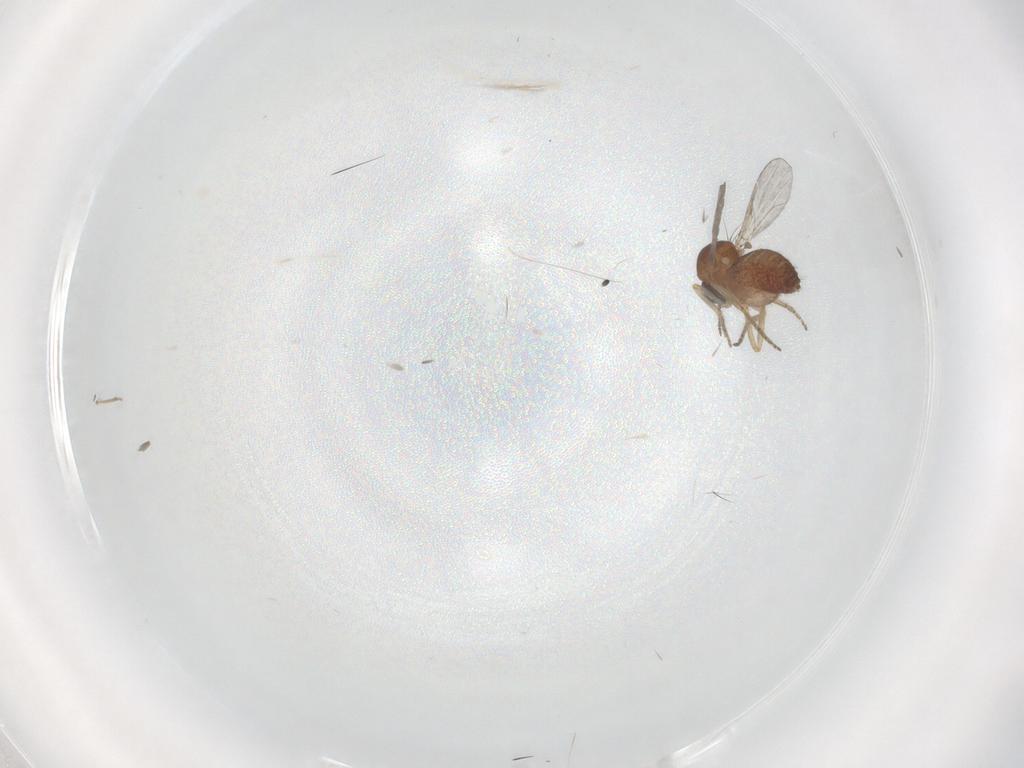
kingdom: Animalia
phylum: Arthropoda
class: Insecta
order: Diptera
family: Ceratopogonidae
